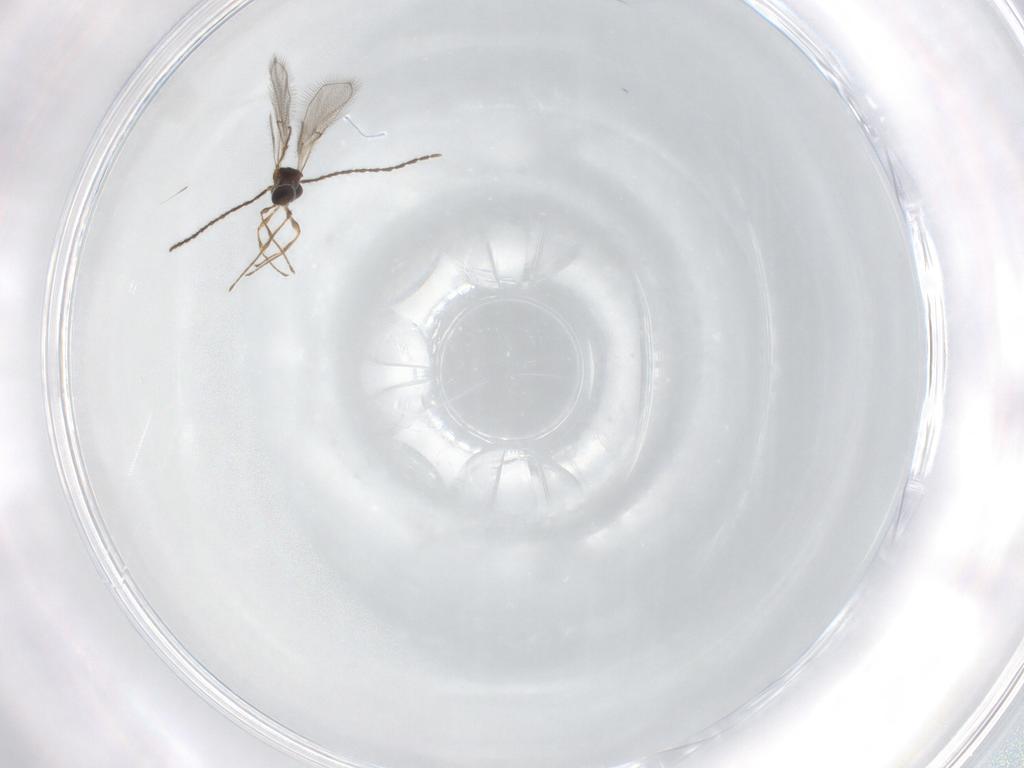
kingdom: Animalia
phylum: Arthropoda
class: Insecta
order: Hymenoptera
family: Diapriidae
